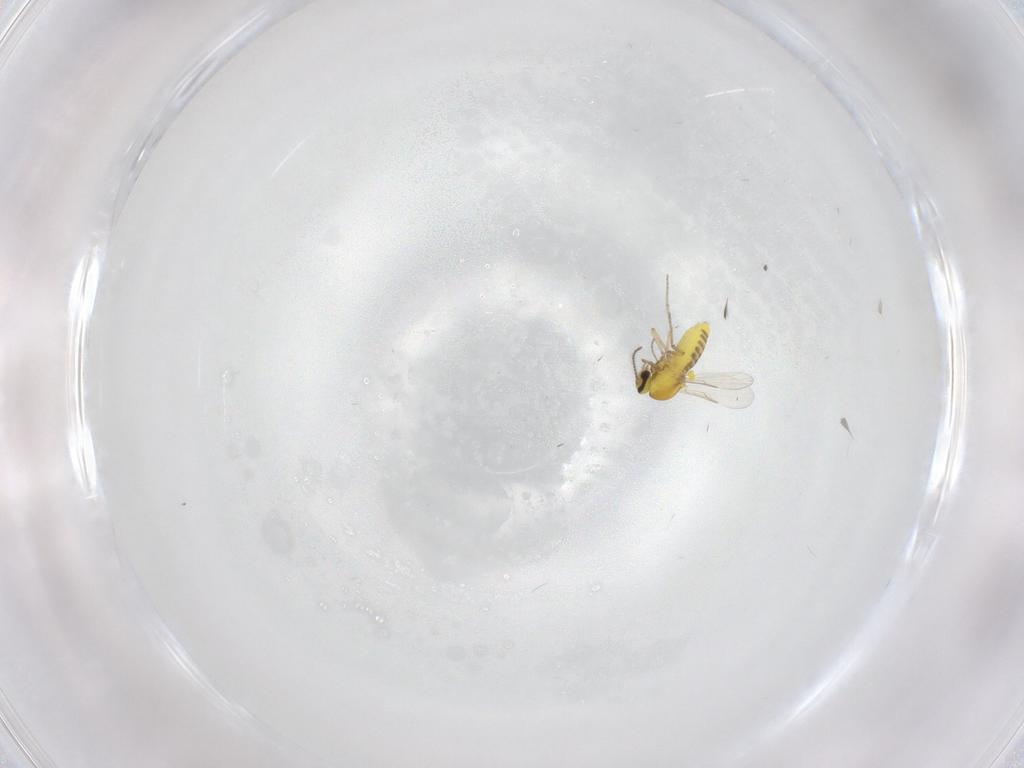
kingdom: Animalia
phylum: Arthropoda
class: Insecta
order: Diptera
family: Ceratopogonidae
